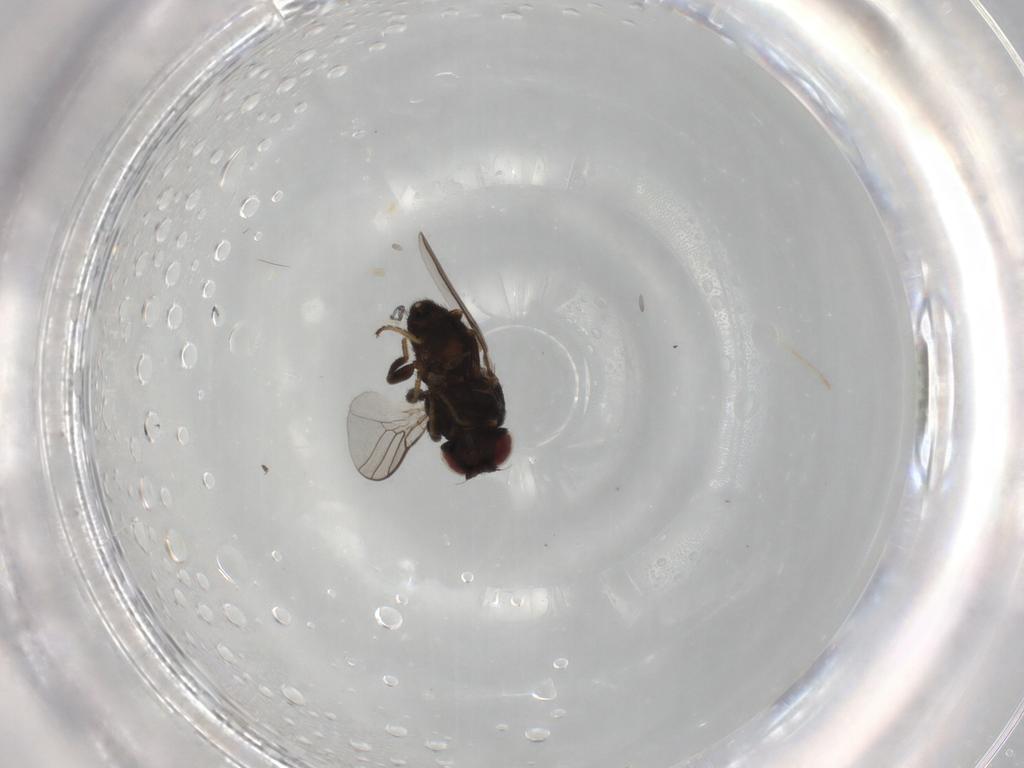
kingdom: Animalia
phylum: Arthropoda
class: Insecta
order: Diptera
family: Chloropidae
